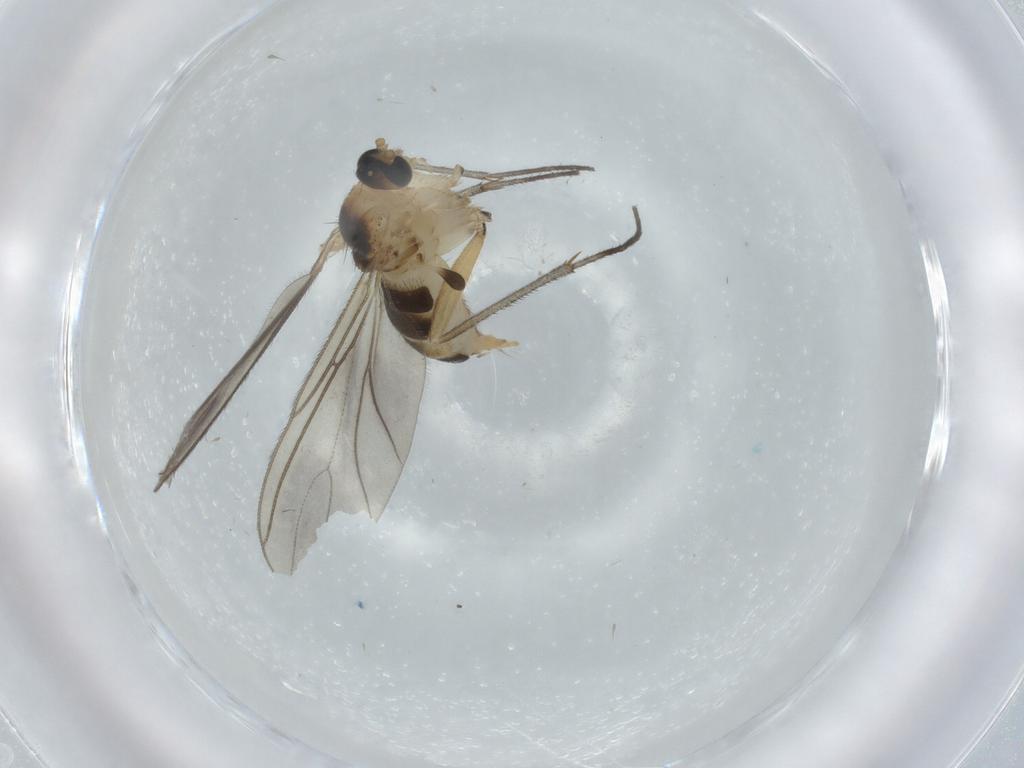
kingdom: Animalia
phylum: Arthropoda
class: Insecta
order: Diptera
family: Sciaridae
